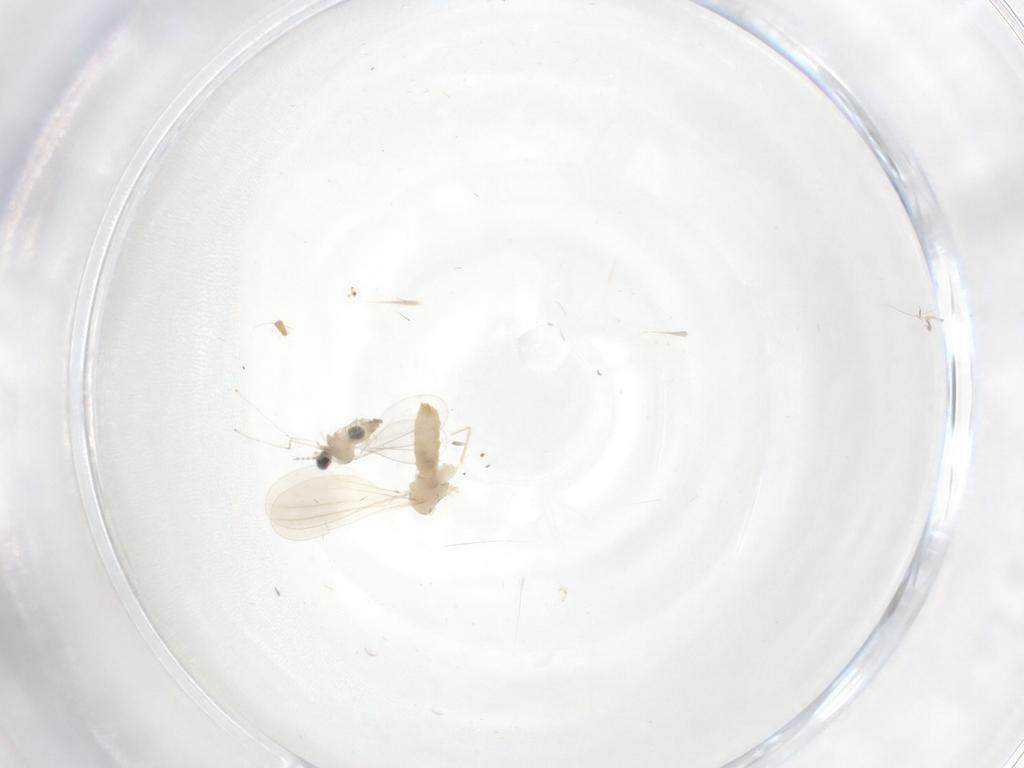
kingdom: Animalia
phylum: Arthropoda
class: Insecta
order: Diptera
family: Cecidomyiidae
